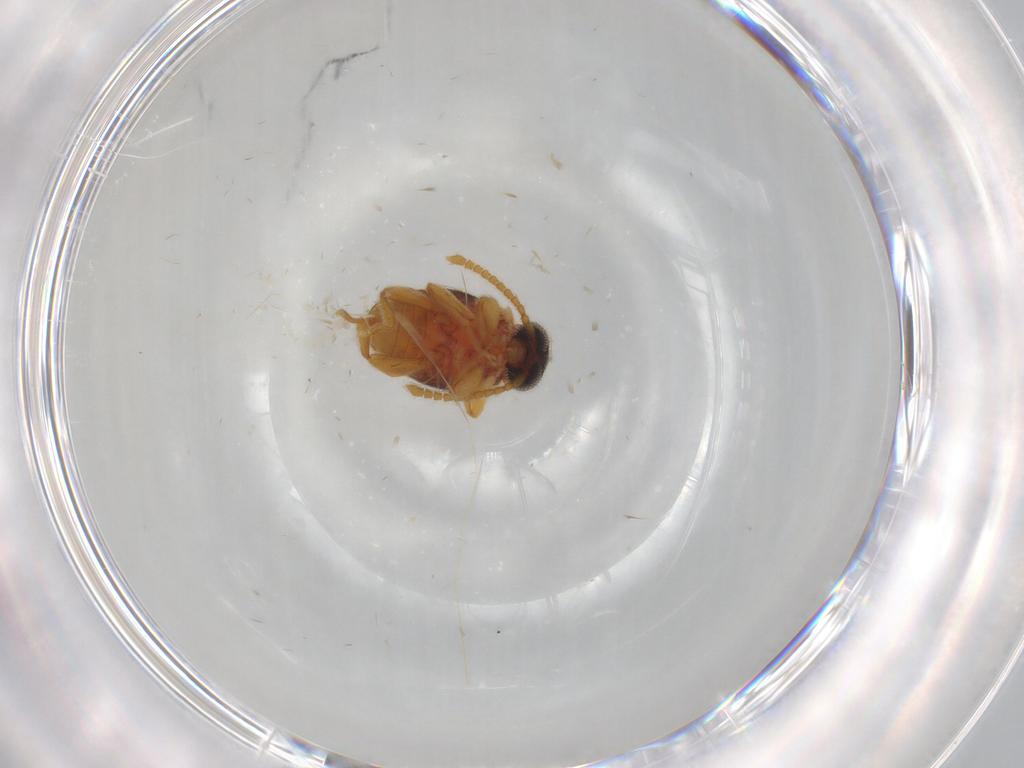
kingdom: Animalia
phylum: Arthropoda
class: Insecta
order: Coleoptera
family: Aderidae
